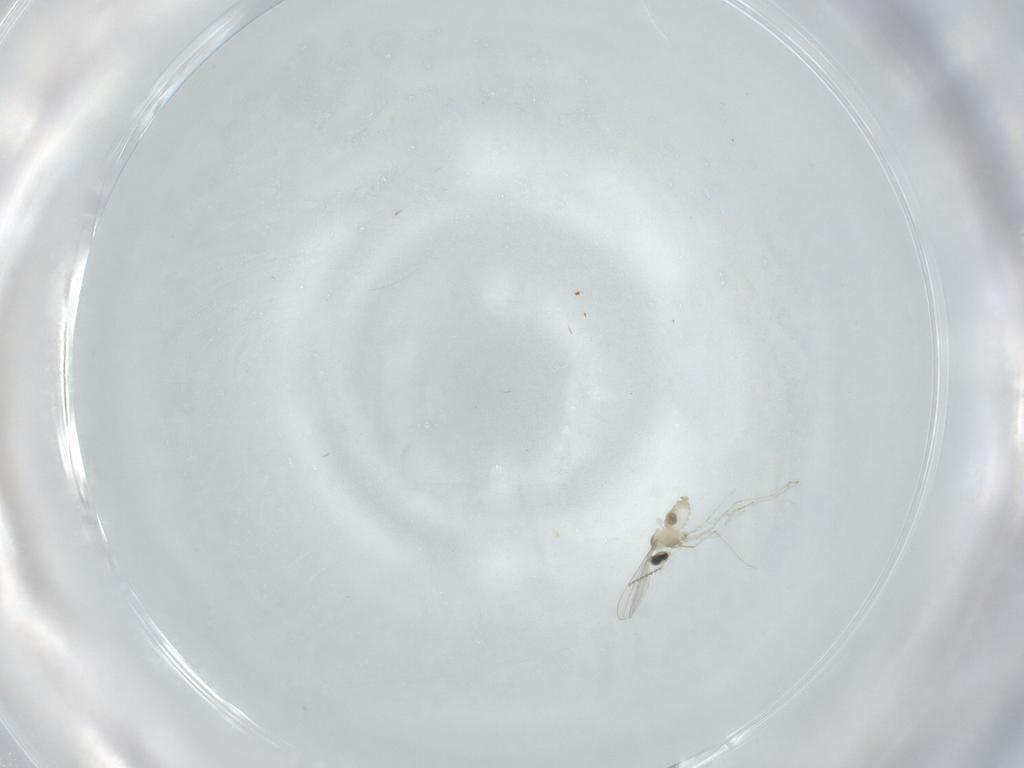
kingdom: Animalia
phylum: Arthropoda
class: Insecta
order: Diptera
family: Cecidomyiidae
